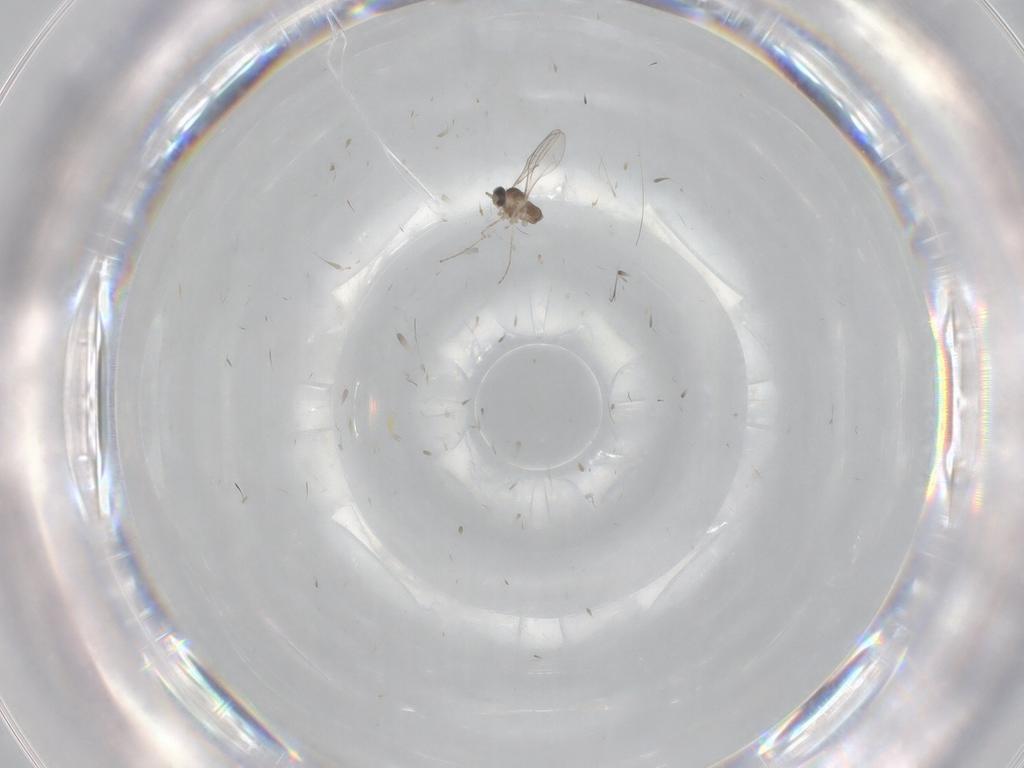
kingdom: Animalia
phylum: Arthropoda
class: Insecta
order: Diptera
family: Cecidomyiidae
